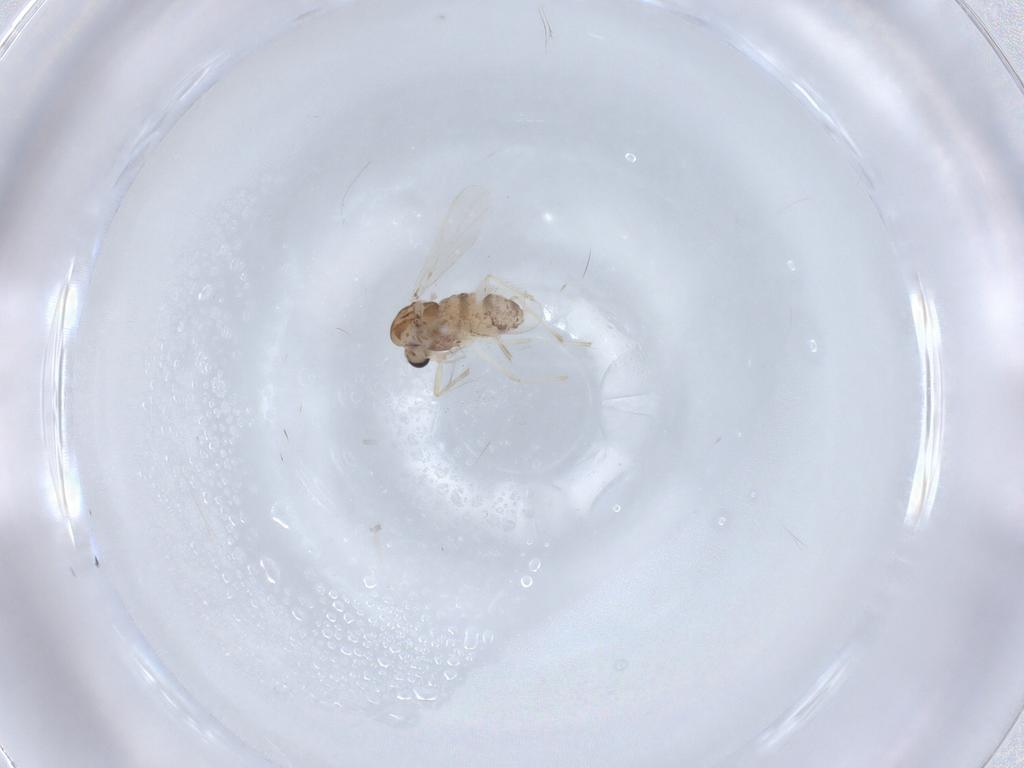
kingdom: Animalia
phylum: Arthropoda
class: Insecta
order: Diptera
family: Chironomidae
